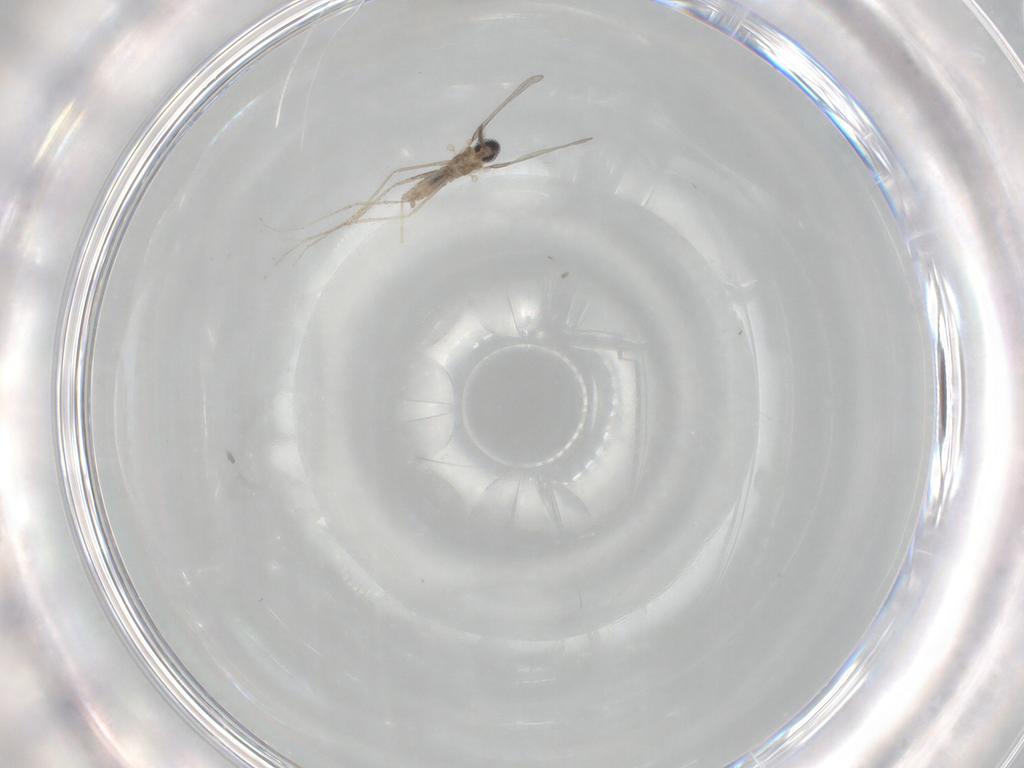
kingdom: Animalia
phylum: Arthropoda
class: Insecta
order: Diptera
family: Cecidomyiidae
